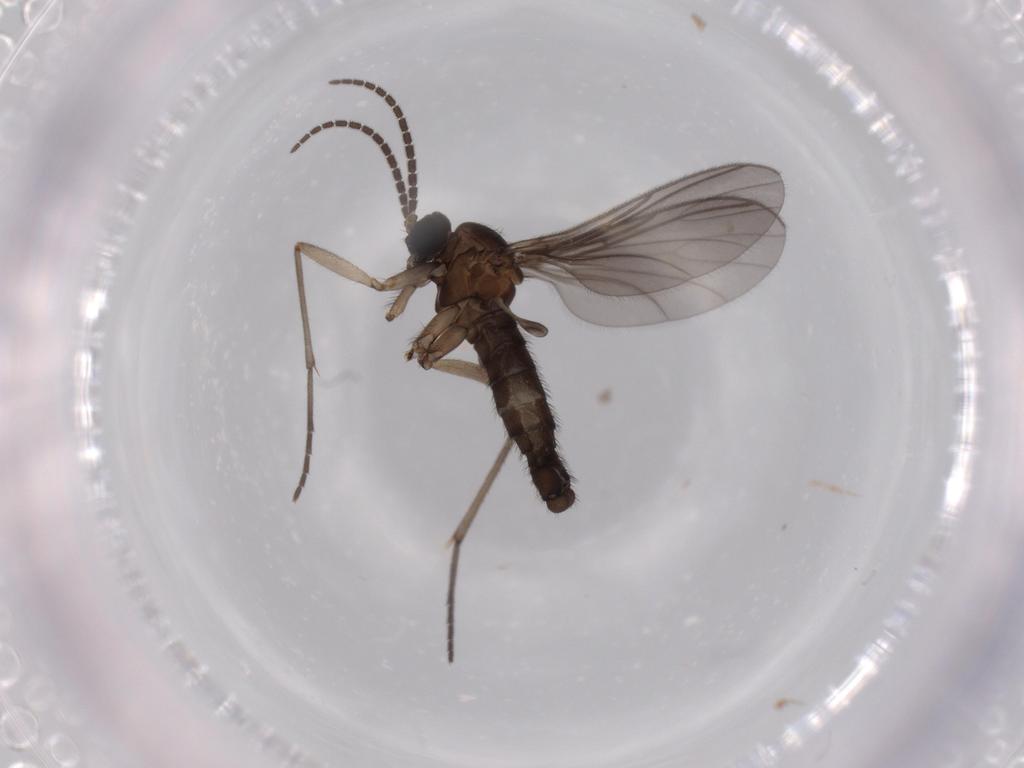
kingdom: Animalia
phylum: Arthropoda
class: Insecta
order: Diptera
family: Sciaridae
